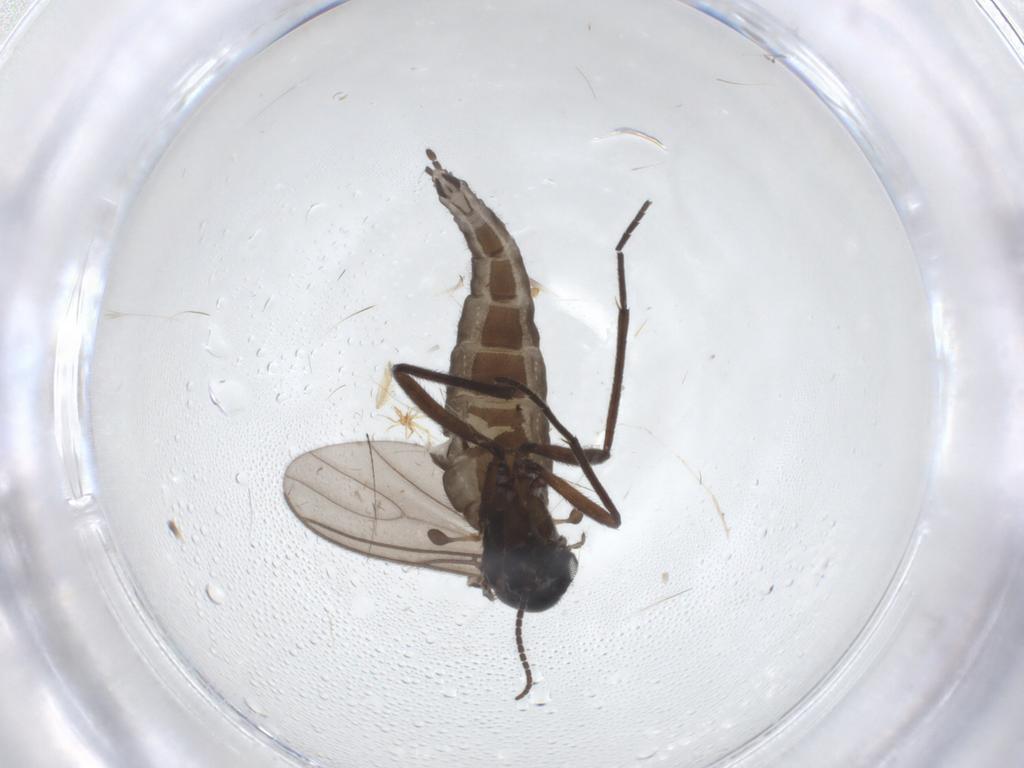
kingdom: Animalia
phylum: Arthropoda
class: Insecta
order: Diptera
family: Sciaridae
